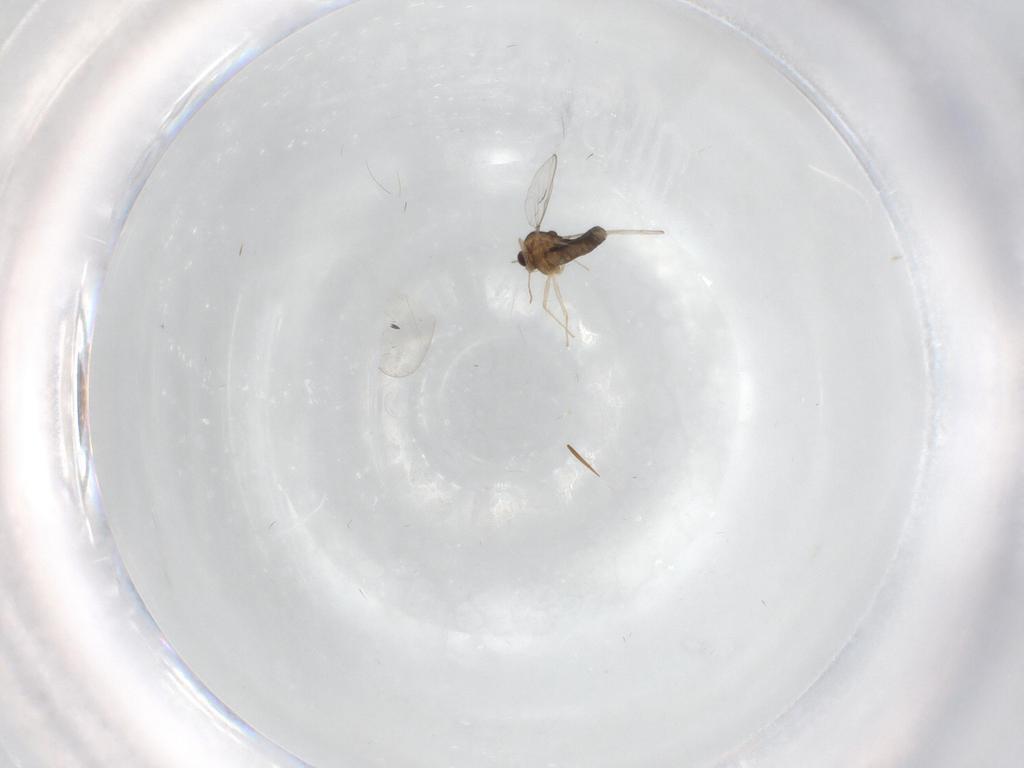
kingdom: Animalia
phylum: Arthropoda
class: Insecta
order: Diptera
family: Chironomidae
